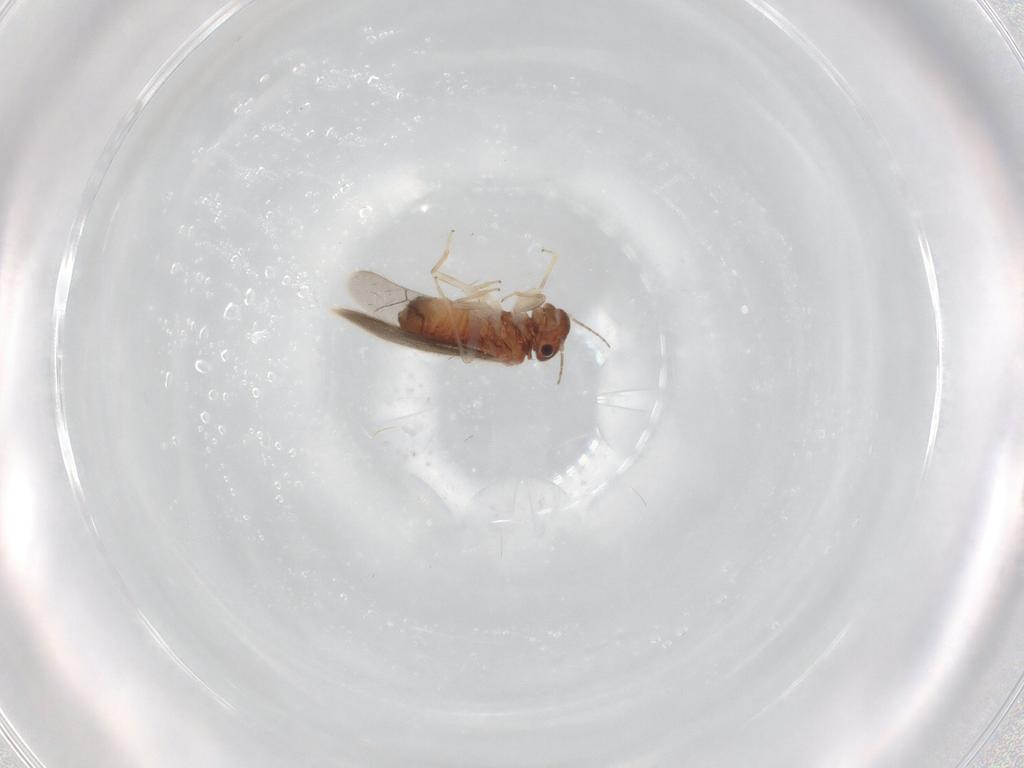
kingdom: Animalia
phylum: Arthropoda
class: Insecta
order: Psocodea
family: Archipsocidae
